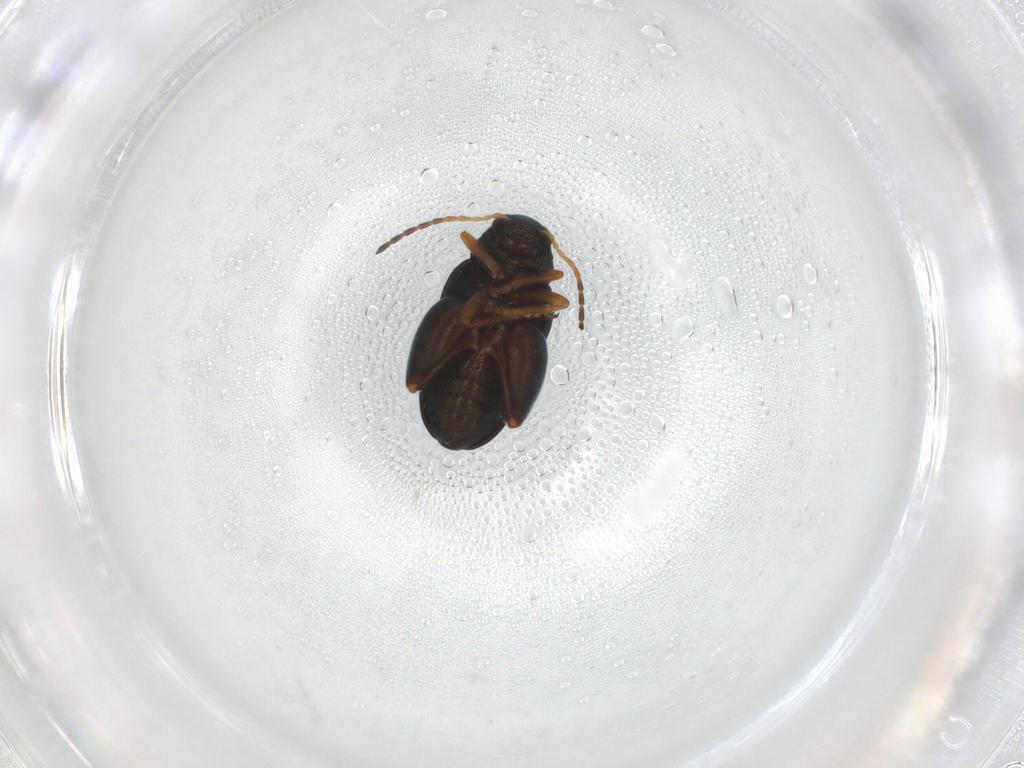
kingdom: Animalia
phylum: Arthropoda
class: Insecta
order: Coleoptera
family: Chrysomelidae
